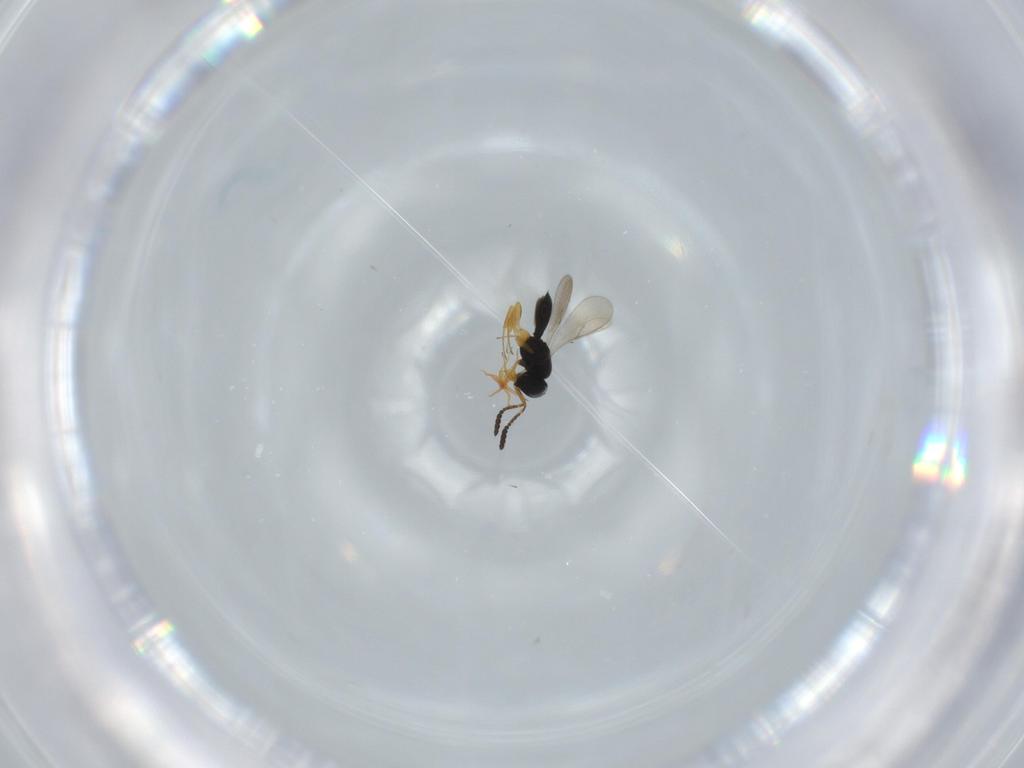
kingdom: Animalia
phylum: Arthropoda
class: Insecta
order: Hymenoptera
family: Scelionidae
